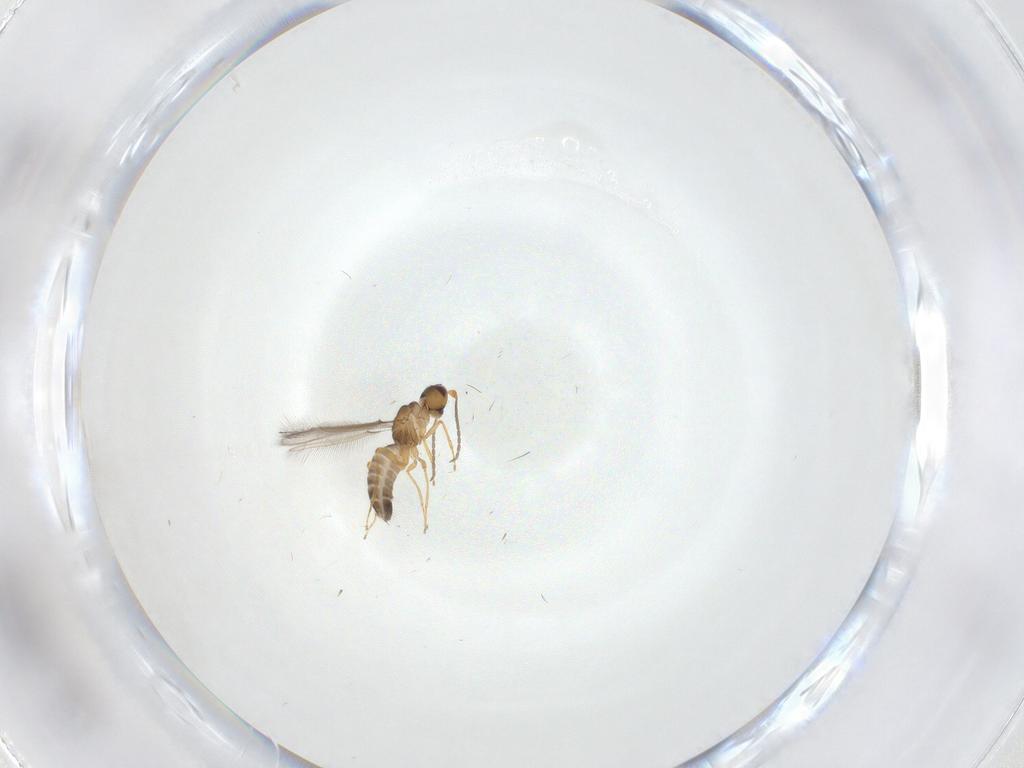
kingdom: Animalia
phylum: Arthropoda
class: Insecta
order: Hymenoptera
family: Mymaridae
